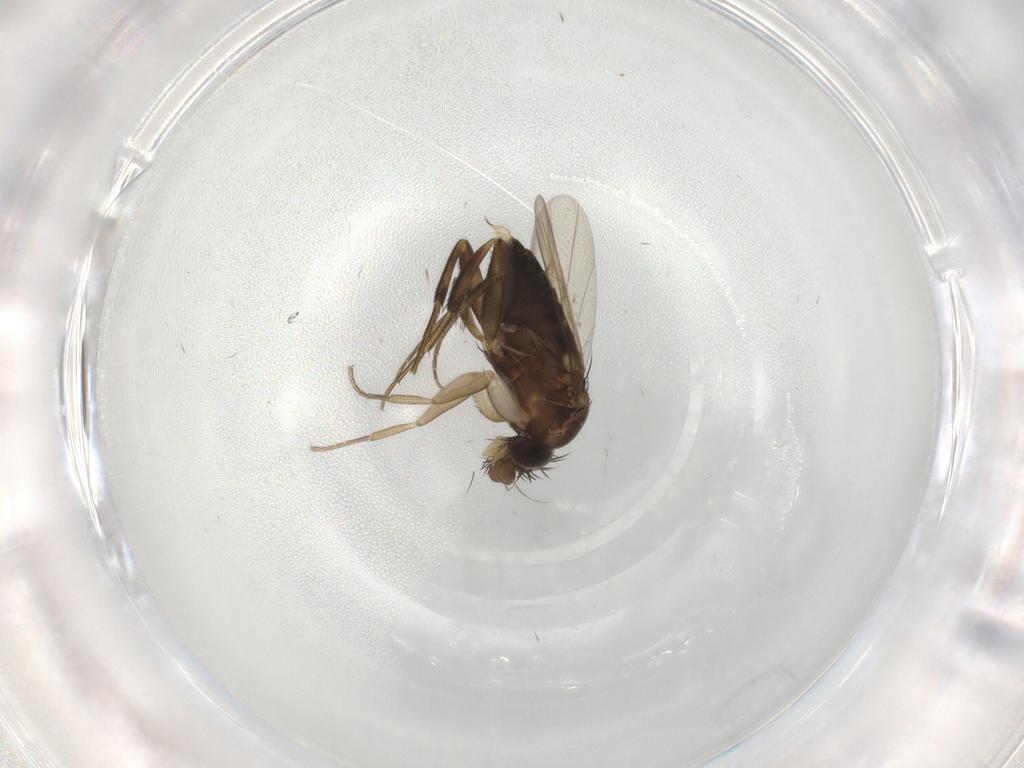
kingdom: Animalia
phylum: Arthropoda
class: Insecta
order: Diptera
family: Phoridae
